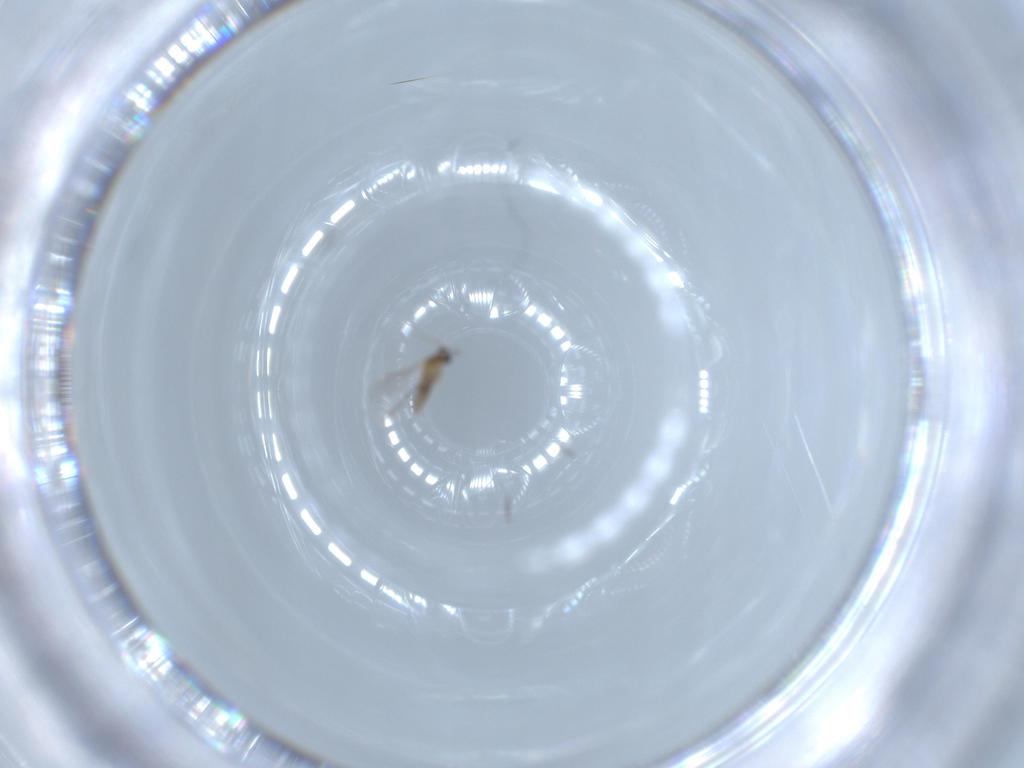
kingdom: Animalia
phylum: Arthropoda
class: Insecta
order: Diptera
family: Cecidomyiidae
